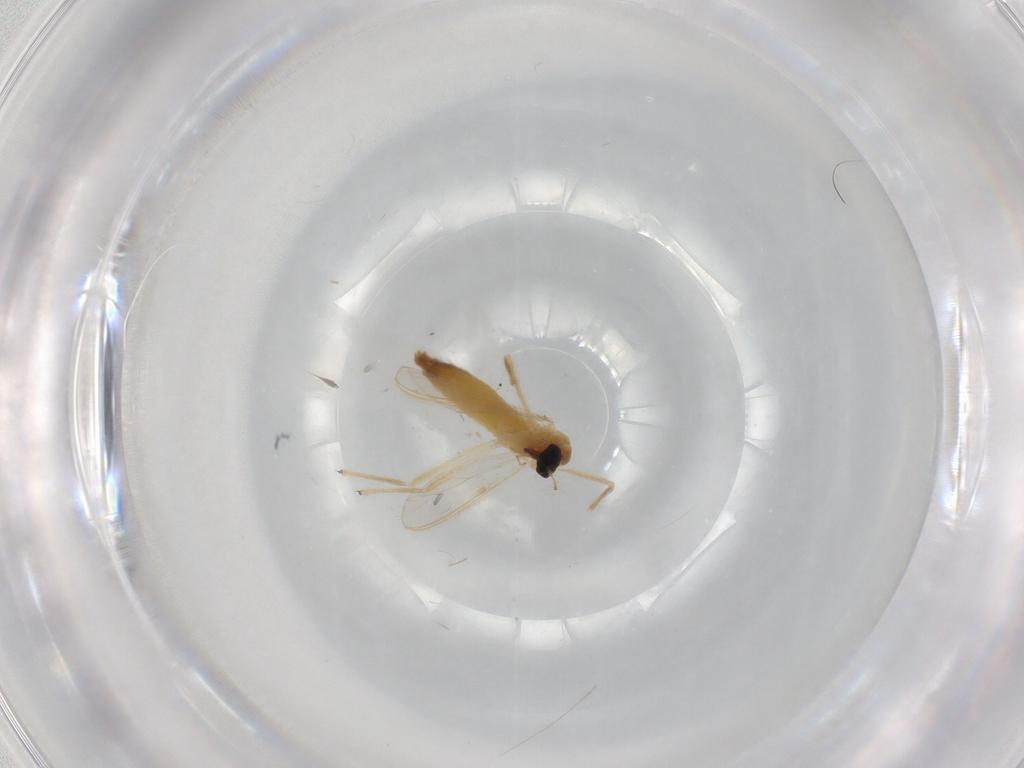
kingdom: Animalia
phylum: Arthropoda
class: Insecta
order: Diptera
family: Chironomidae
